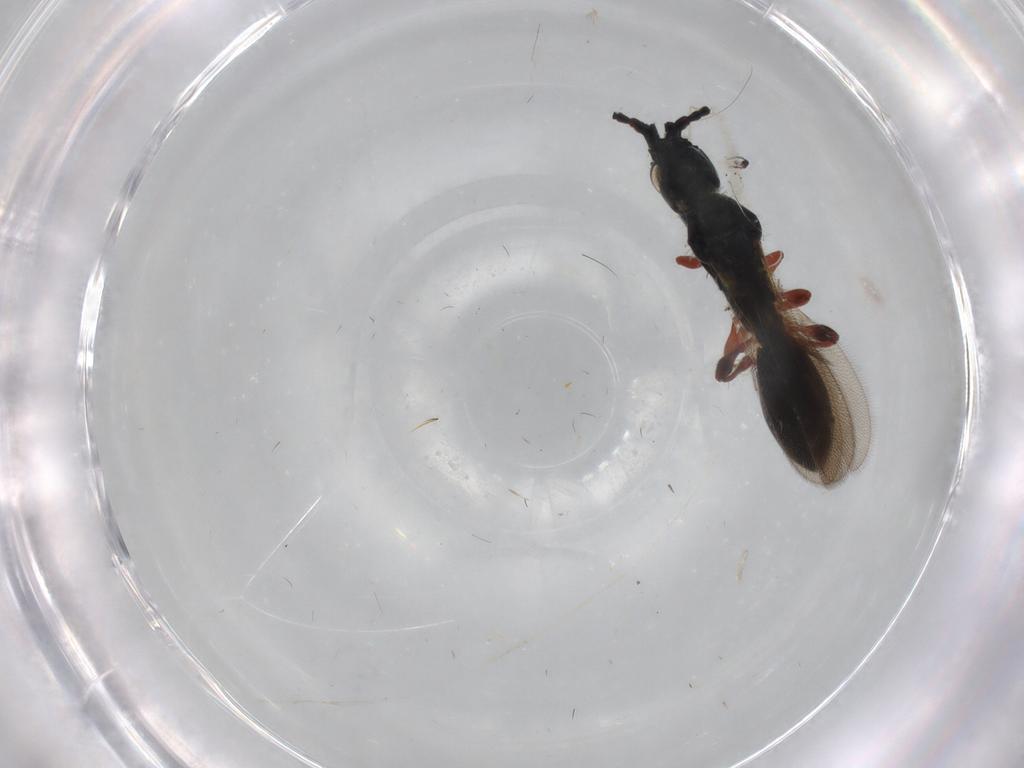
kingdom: Animalia
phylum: Arthropoda
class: Insecta
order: Diptera
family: Dolichopodidae
